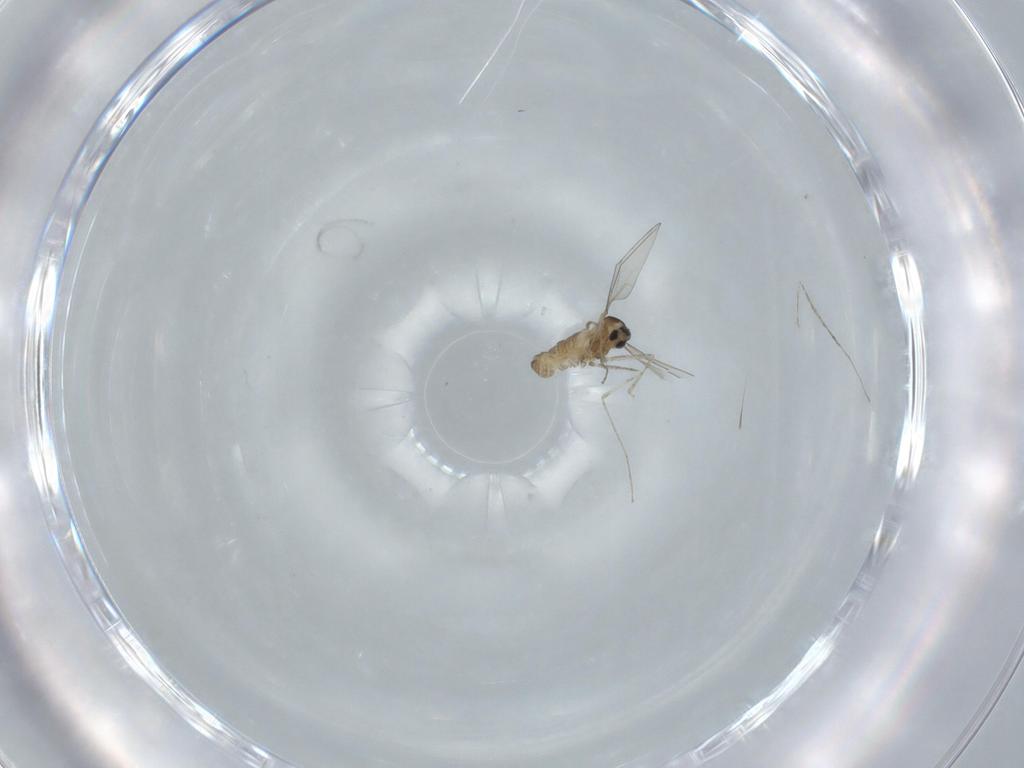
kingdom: Animalia
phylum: Arthropoda
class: Insecta
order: Diptera
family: Cecidomyiidae
